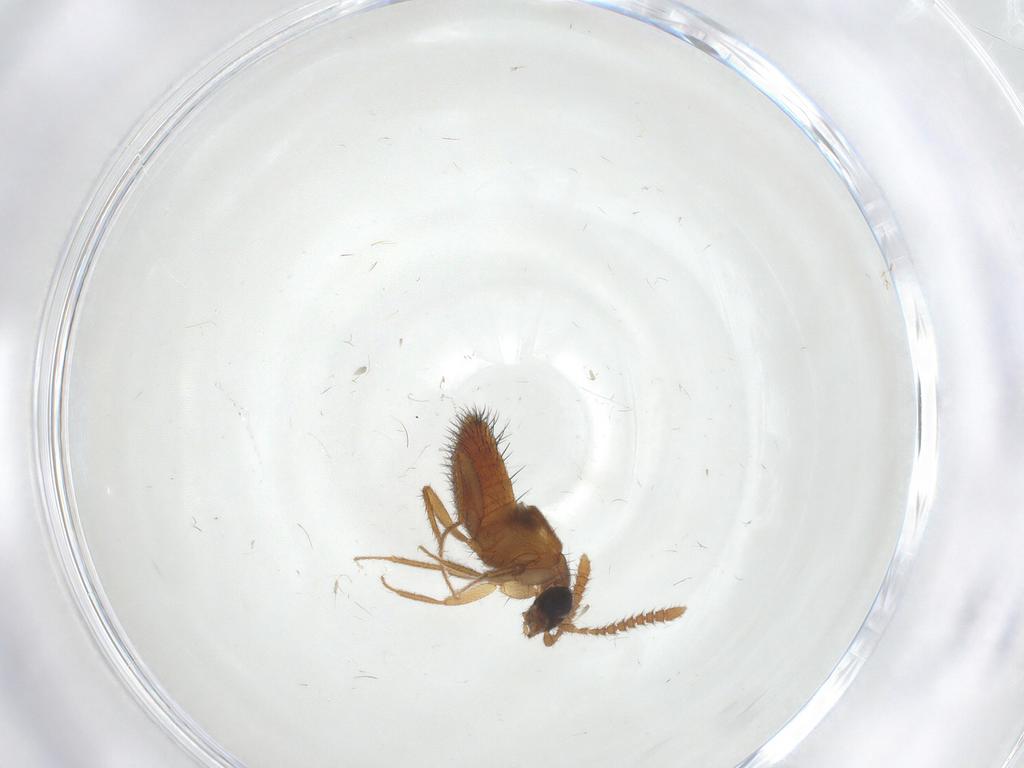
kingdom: Animalia
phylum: Arthropoda
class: Insecta
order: Coleoptera
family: Staphylinidae
